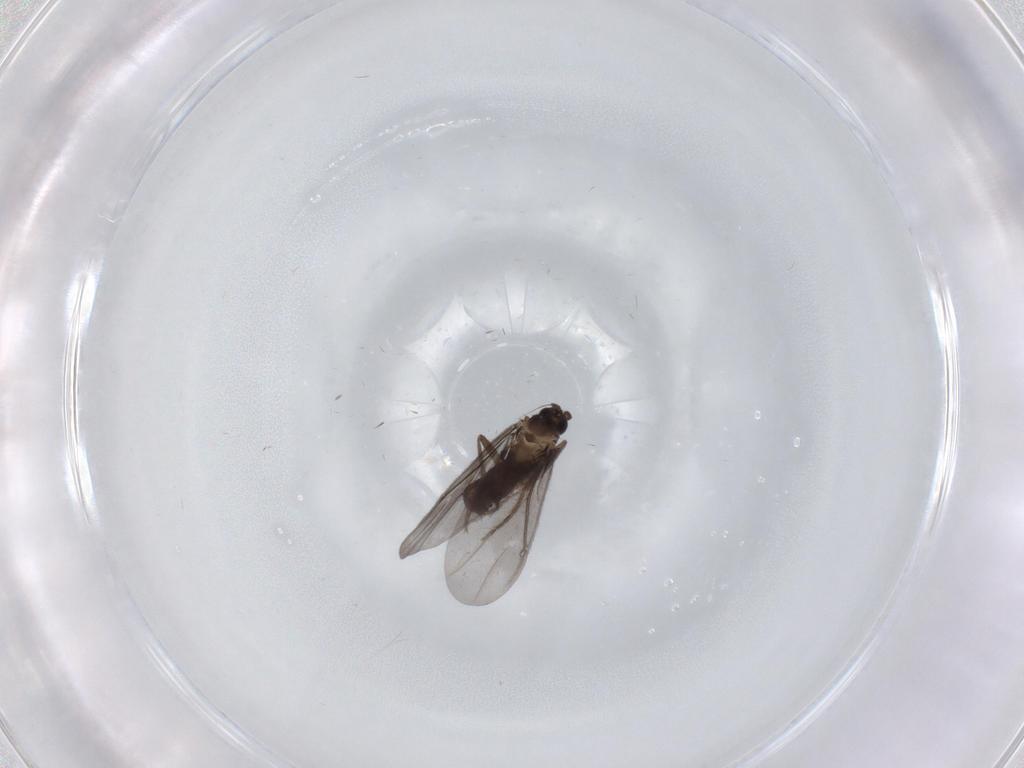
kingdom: Animalia
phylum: Arthropoda
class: Insecta
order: Diptera
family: Phoridae
